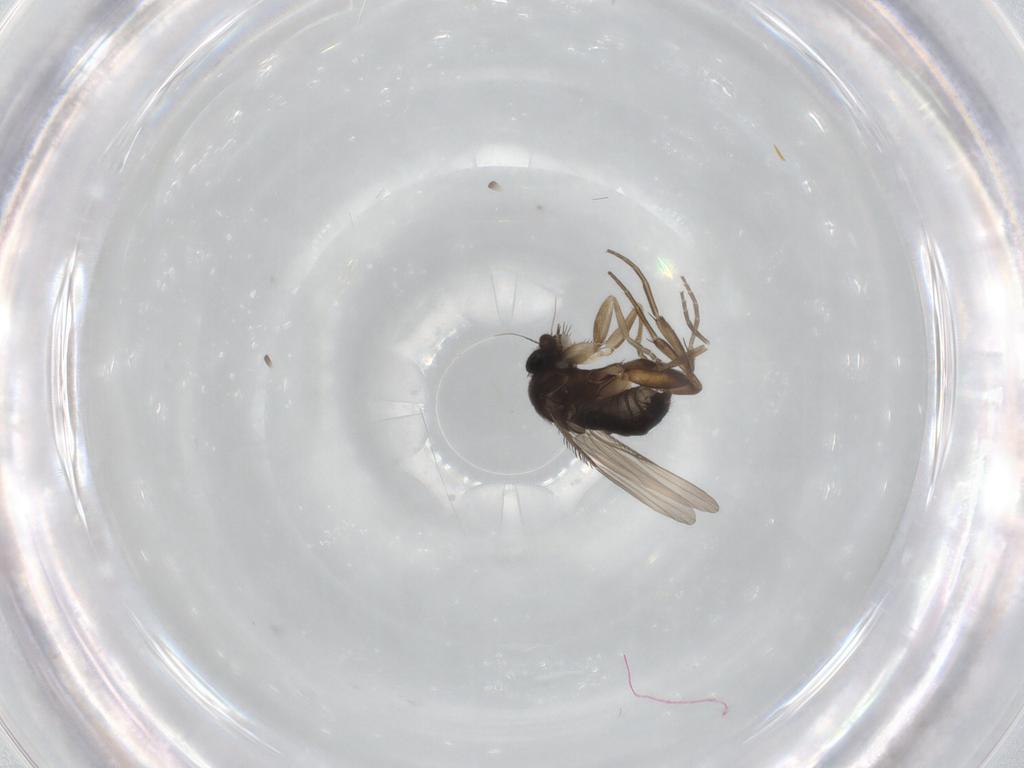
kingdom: Animalia
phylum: Arthropoda
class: Insecta
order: Diptera
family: Phoridae
